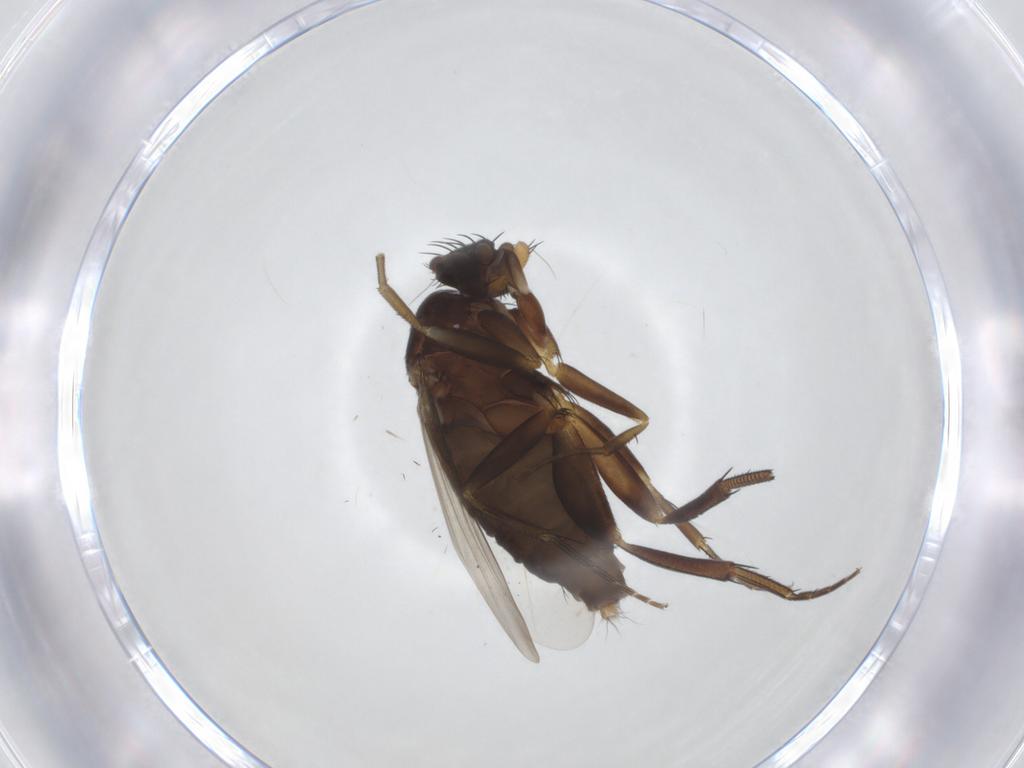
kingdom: Animalia
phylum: Arthropoda
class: Insecta
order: Diptera
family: Phoridae
